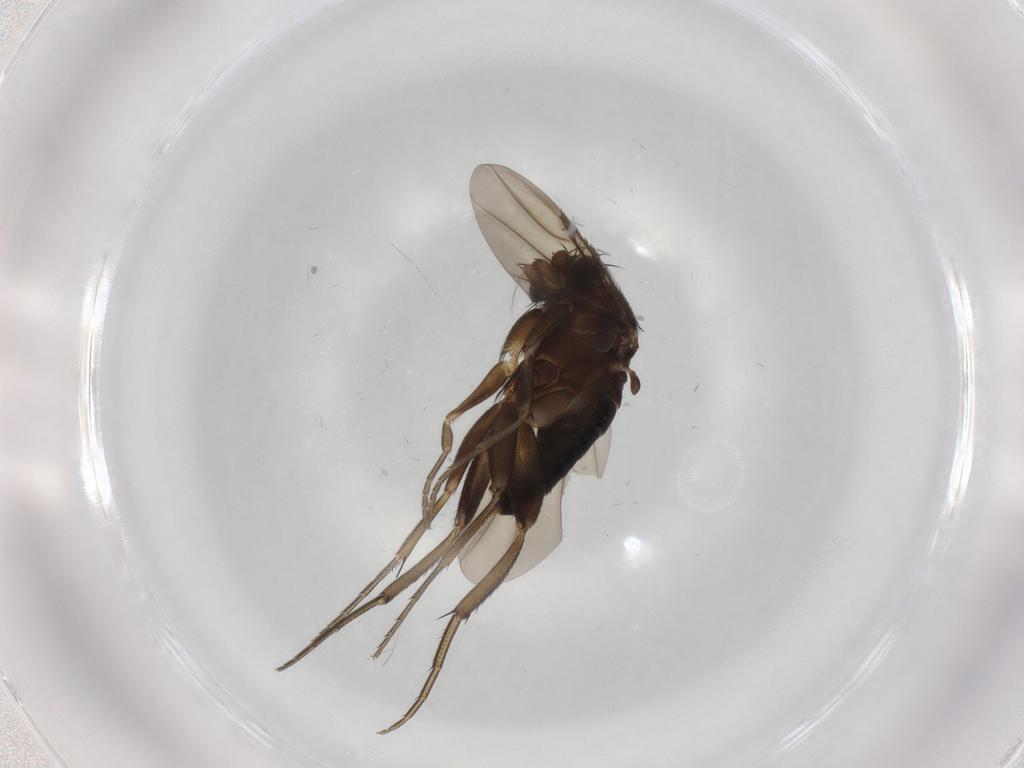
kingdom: Animalia
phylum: Arthropoda
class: Insecta
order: Diptera
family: Phoridae
